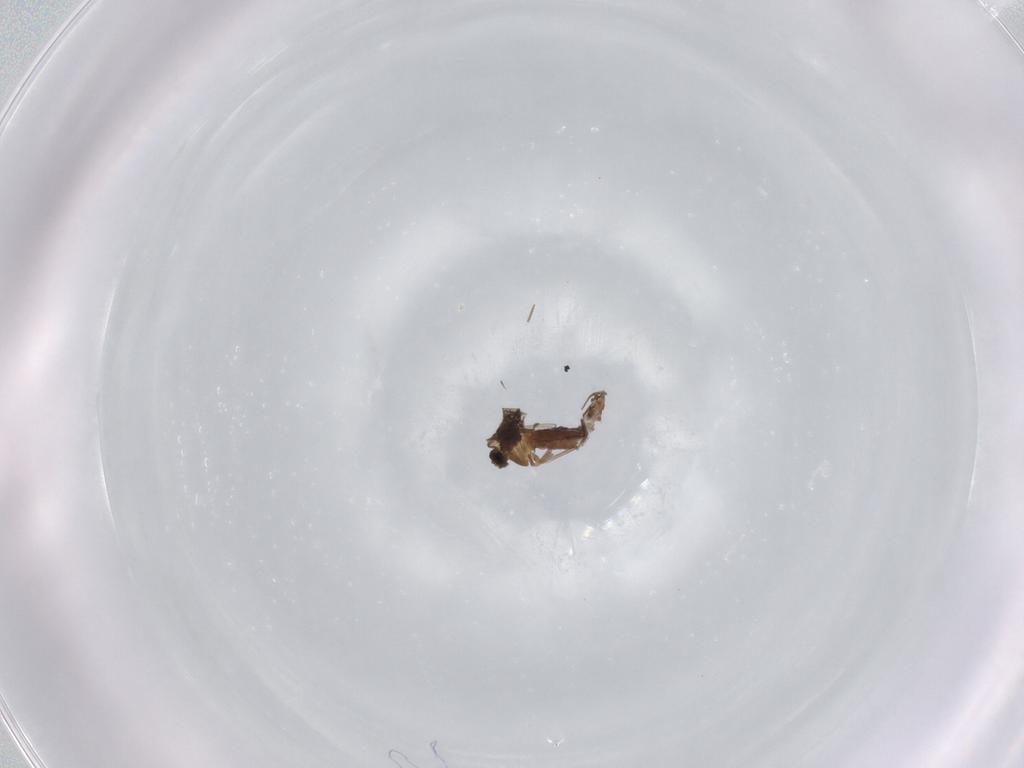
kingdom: Animalia
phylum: Arthropoda
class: Insecta
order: Diptera
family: Chironomidae
